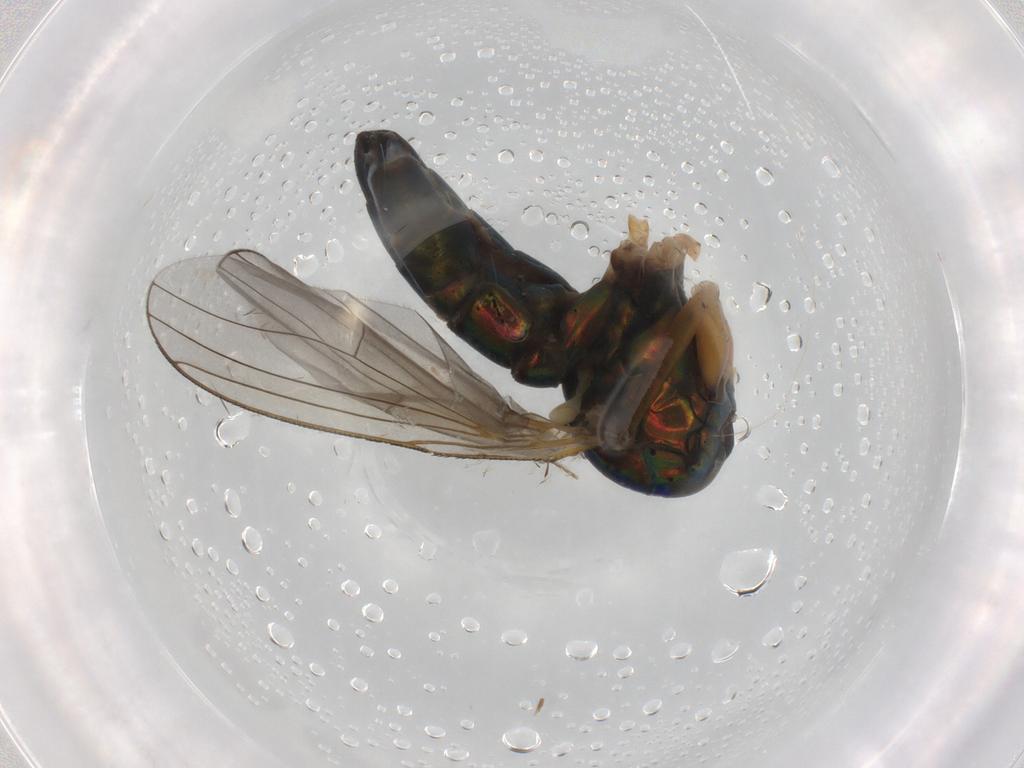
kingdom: Animalia
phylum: Arthropoda
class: Insecta
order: Diptera
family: Dolichopodidae
